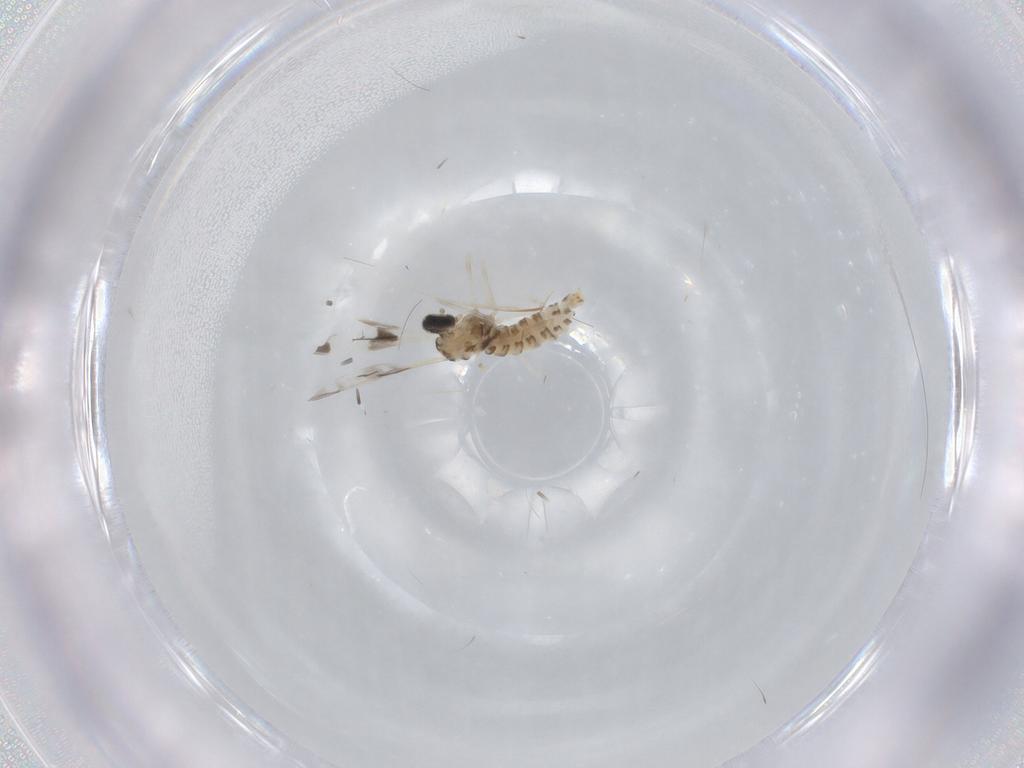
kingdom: Animalia
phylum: Arthropoda
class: Insecta
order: Diptera
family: Cecidomyiidae
